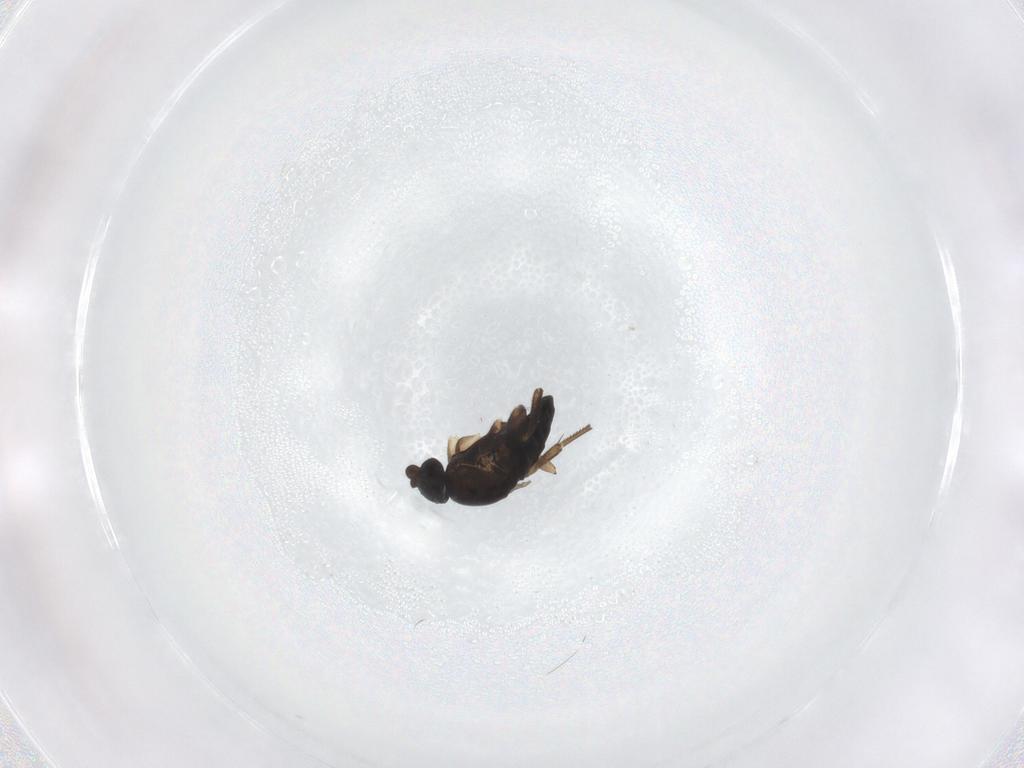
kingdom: Animalia
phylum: Arthropoda
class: Insecta
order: Diptera
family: Phoridae
